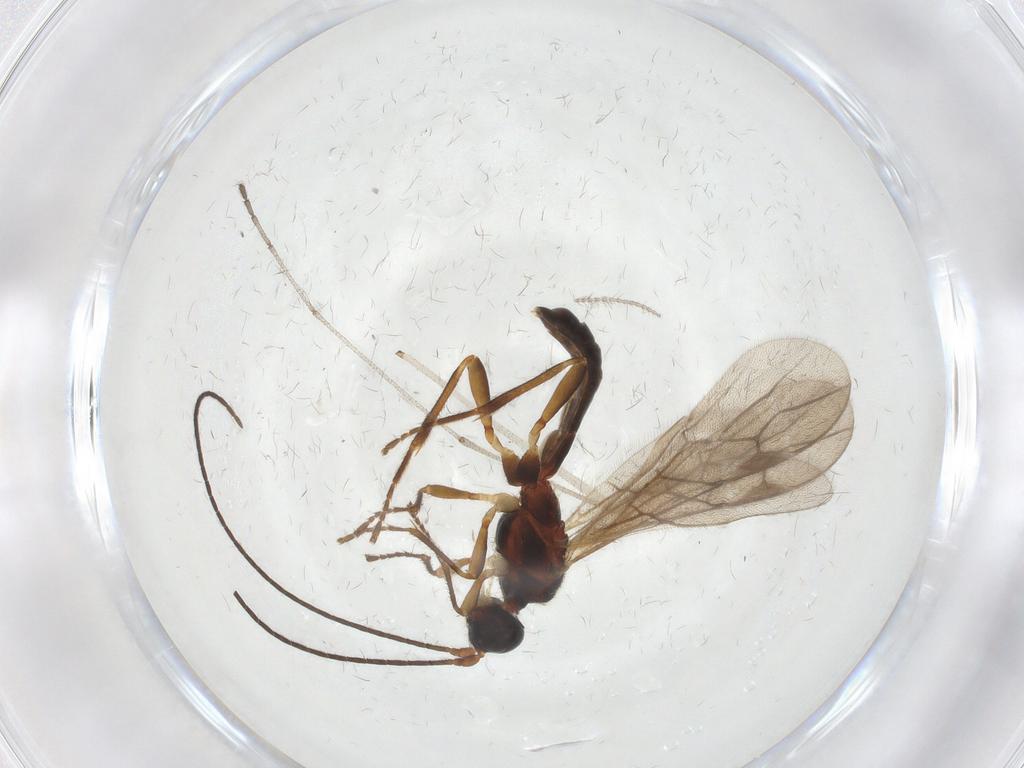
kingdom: Animalia
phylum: Arthropoda
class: Insecta
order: Hymenoptera
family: Braconidae
